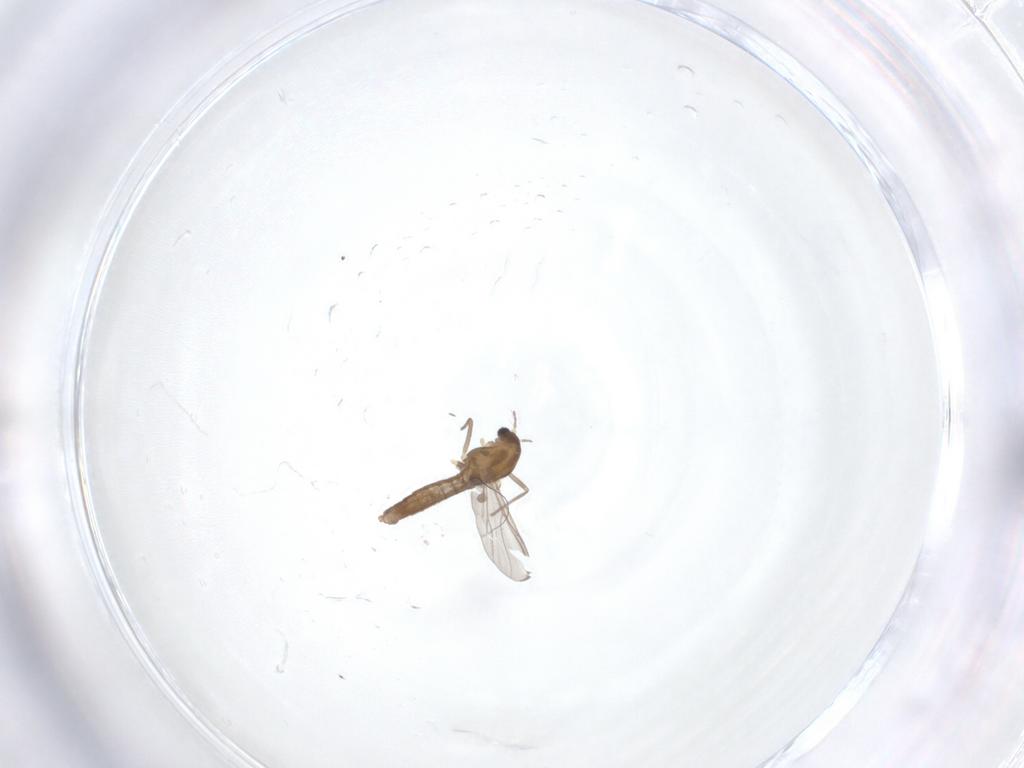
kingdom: Animalia
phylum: Arthropoda
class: Insecta
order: Diptera
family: Chironomidae
